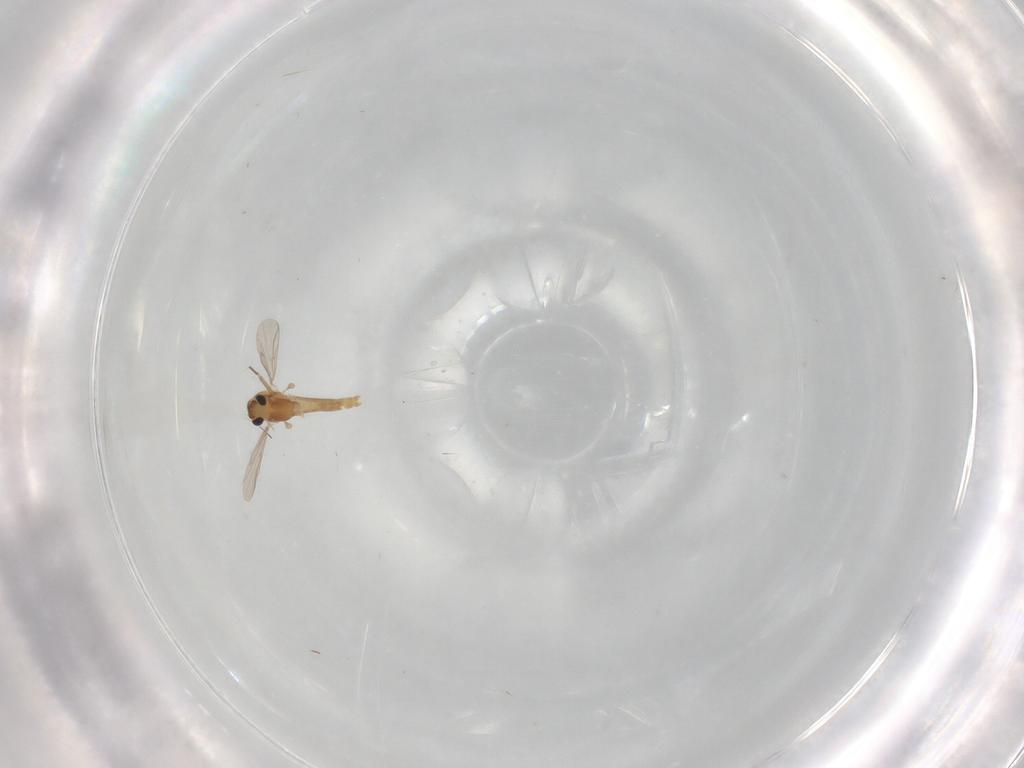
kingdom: Animalia
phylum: Arthropoda
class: Insecta
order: Diptera
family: Chironomidae
